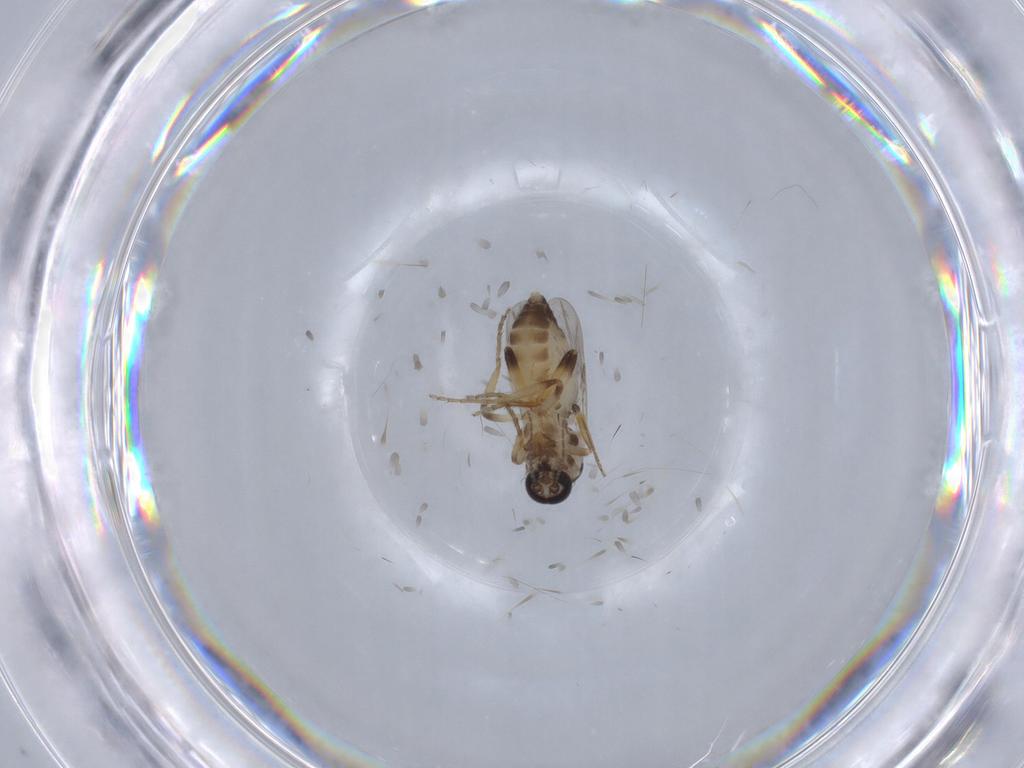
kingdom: Animalia
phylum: Arthropoda
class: Insecta
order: Diptera
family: Ceratopogonidae
